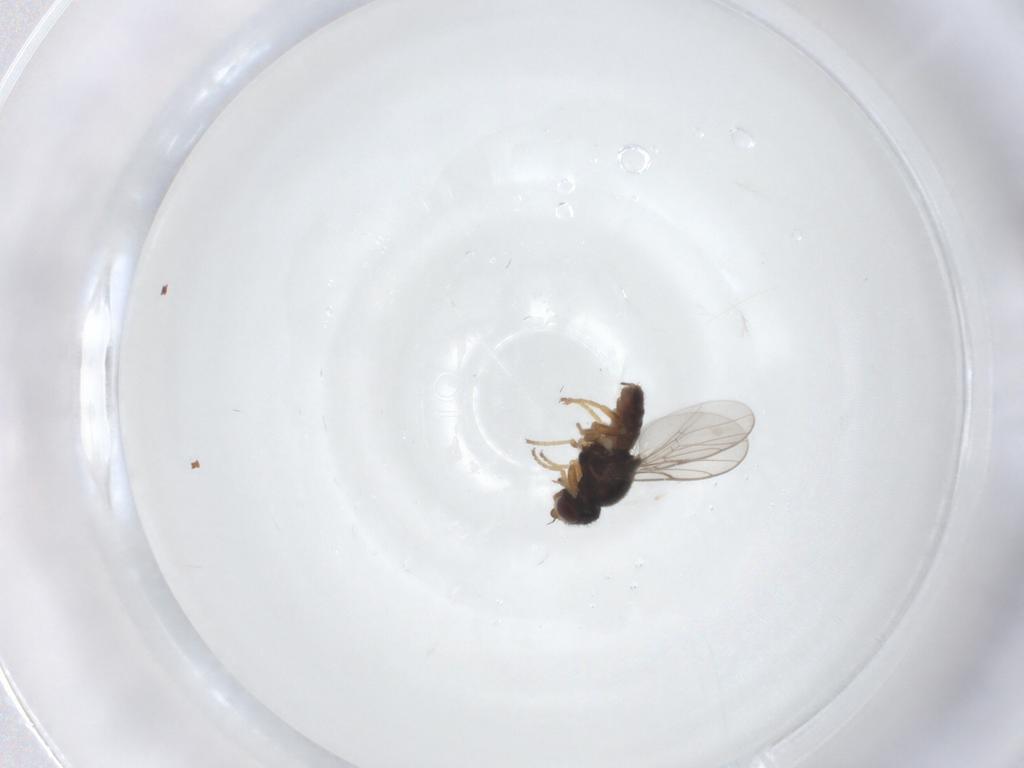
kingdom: Animalia
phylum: Arthropoda
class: Insecta
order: Diptera
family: Chloropidae
